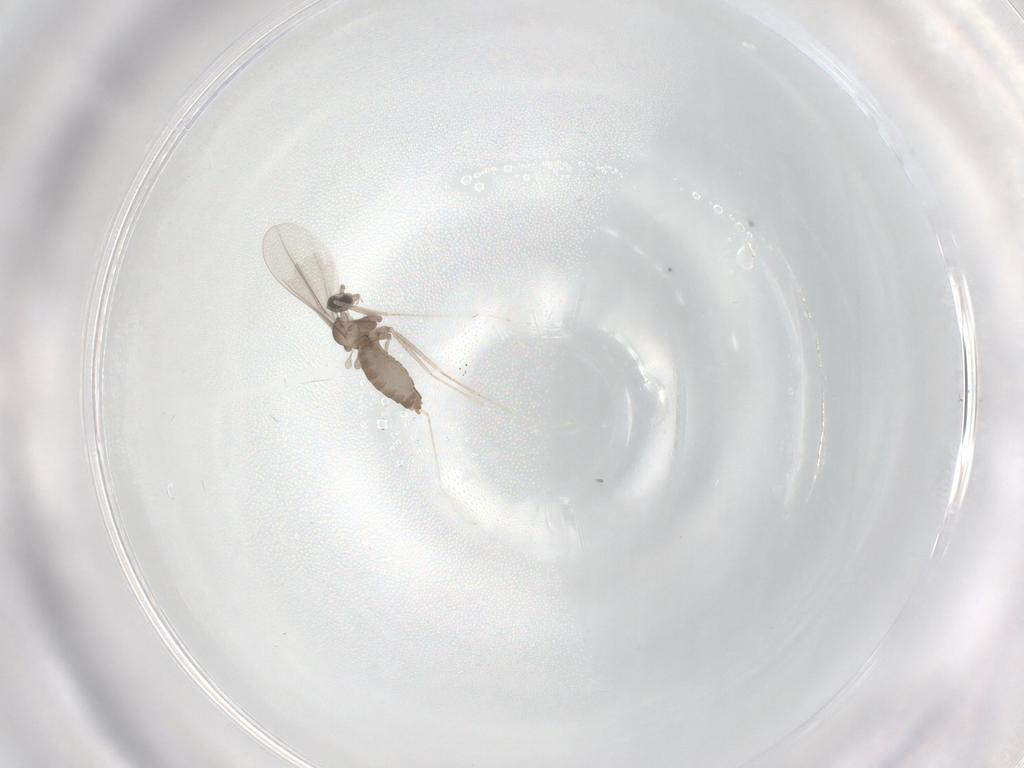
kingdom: Animalia
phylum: Arthropoda
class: Insecta
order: Diptera
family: Cecidomyiidae
